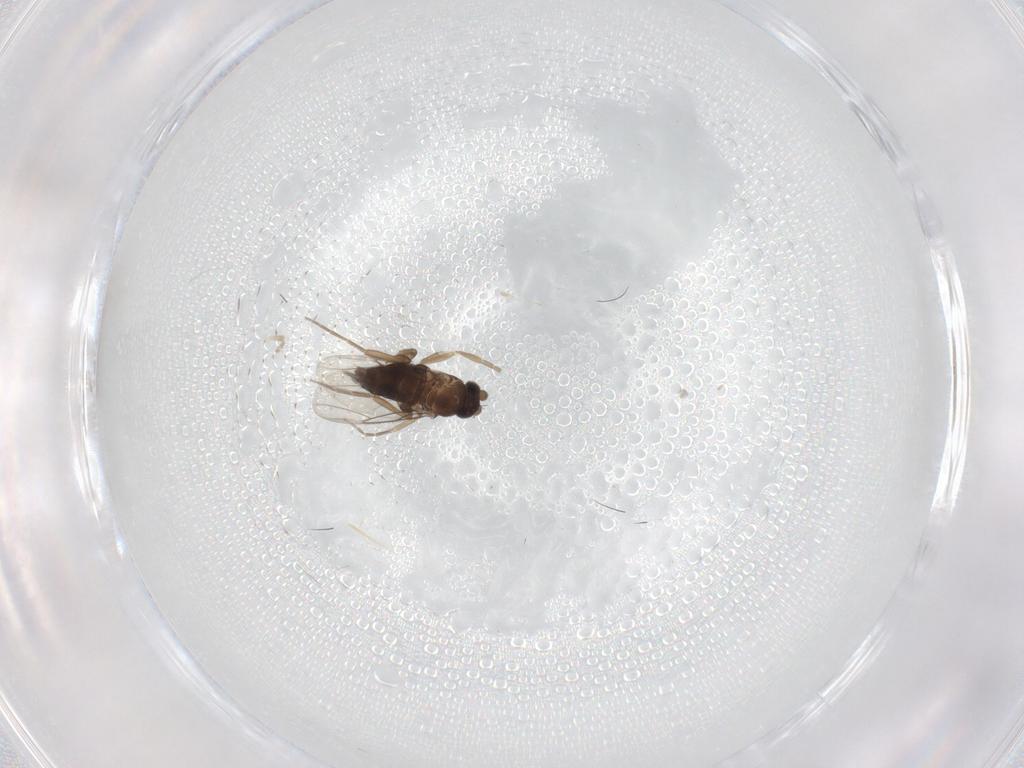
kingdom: Animalia
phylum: Arthropoda
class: Insecta
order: Diptera
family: Phoridae
